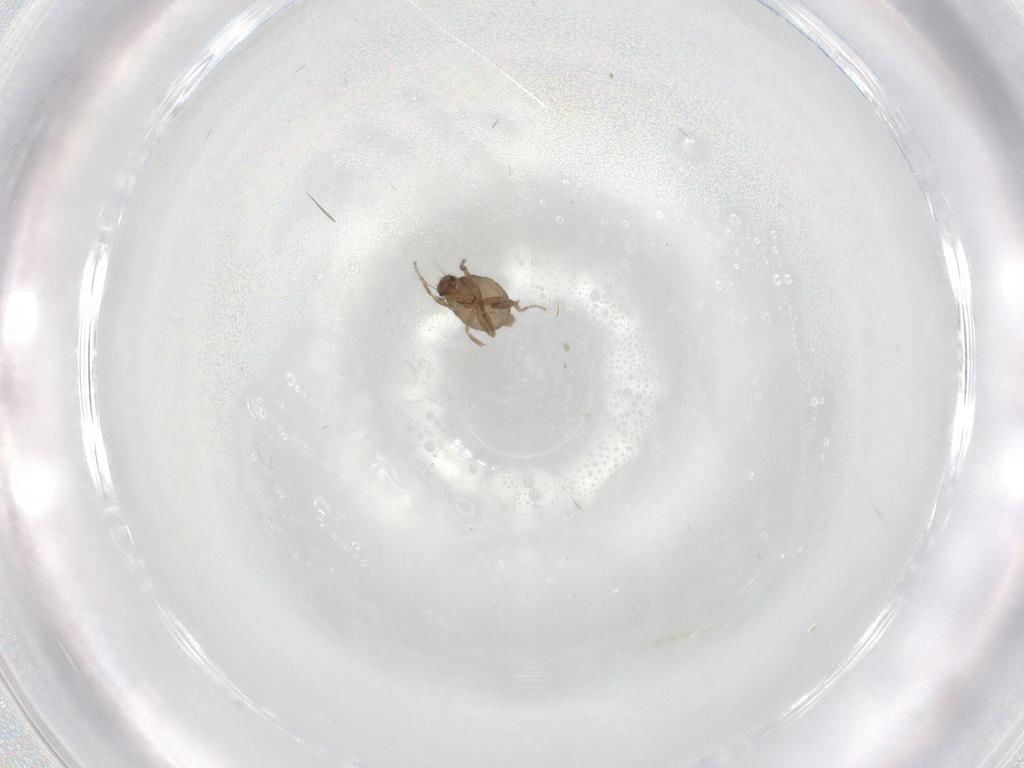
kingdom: Animalia
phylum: Arthropoda
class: Insecta
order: Diptera
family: Phoridae
